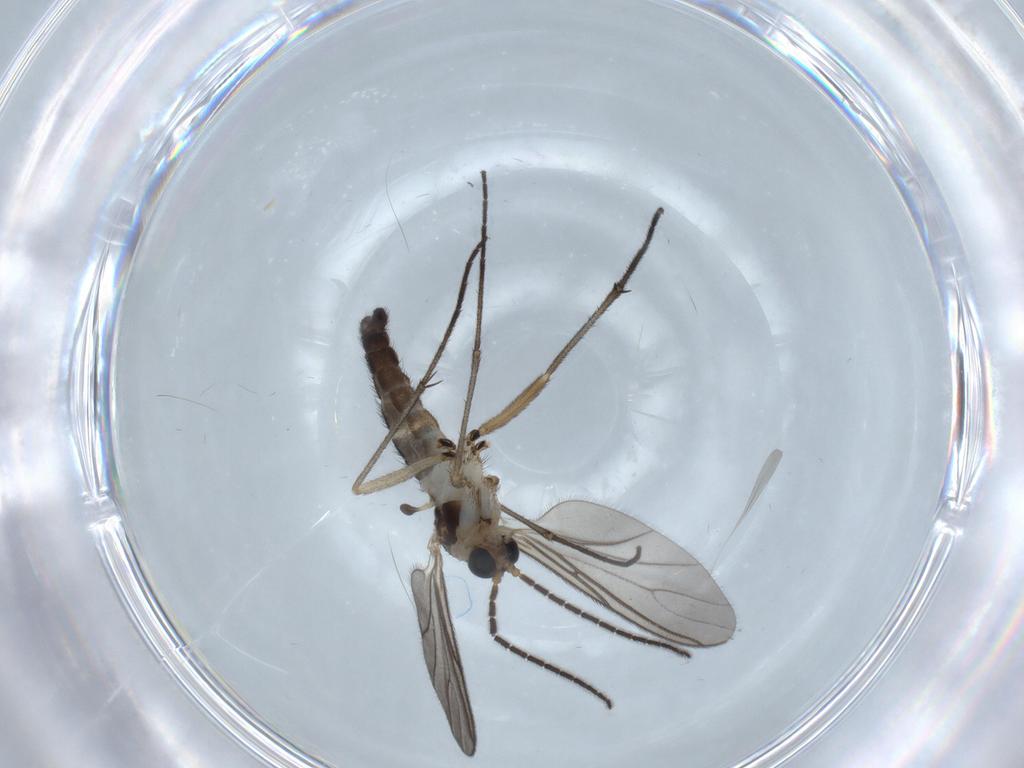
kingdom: Animalia
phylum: Arthropoda
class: Insecta
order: Diptera
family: Sciaridae
